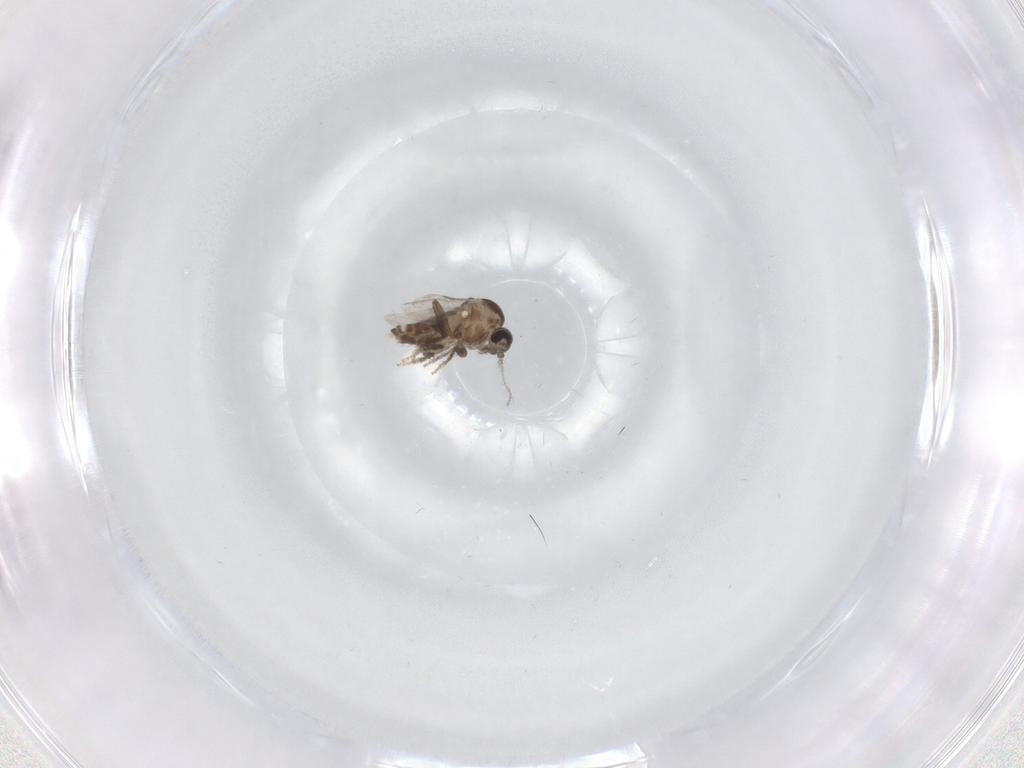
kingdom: Animalia
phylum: Arthropoda
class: Insecta
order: Diptera
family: Ceratopogonidae
